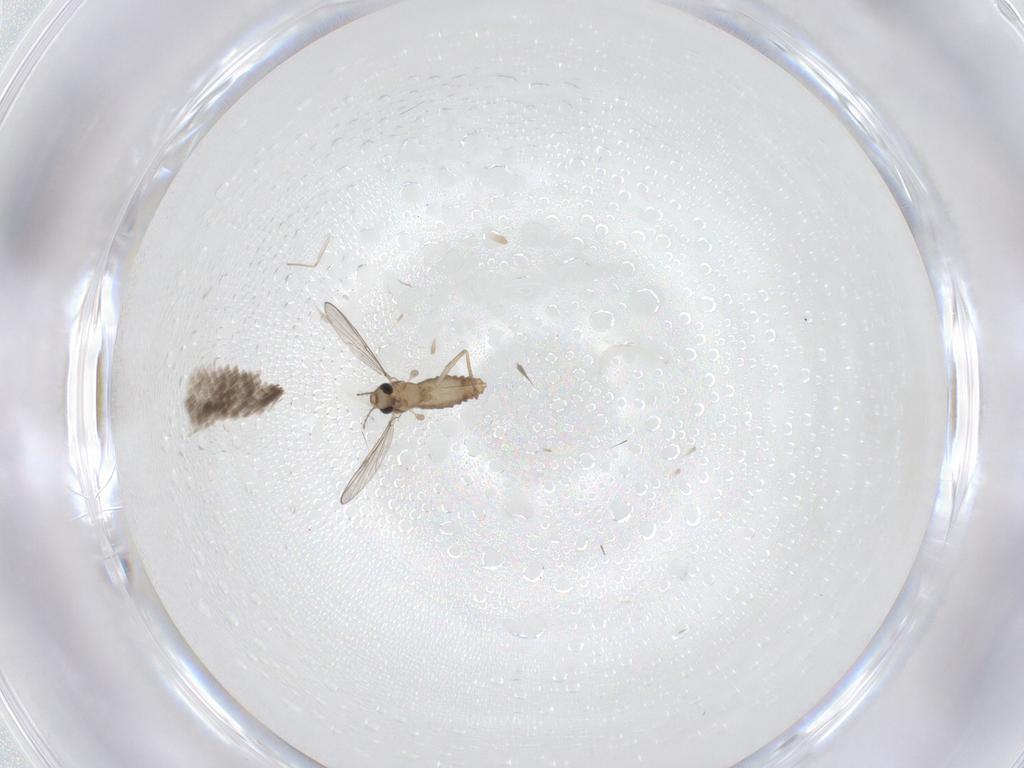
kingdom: Animalia
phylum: Arthropoda
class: Insecta
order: Diptera
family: Chironomidae
